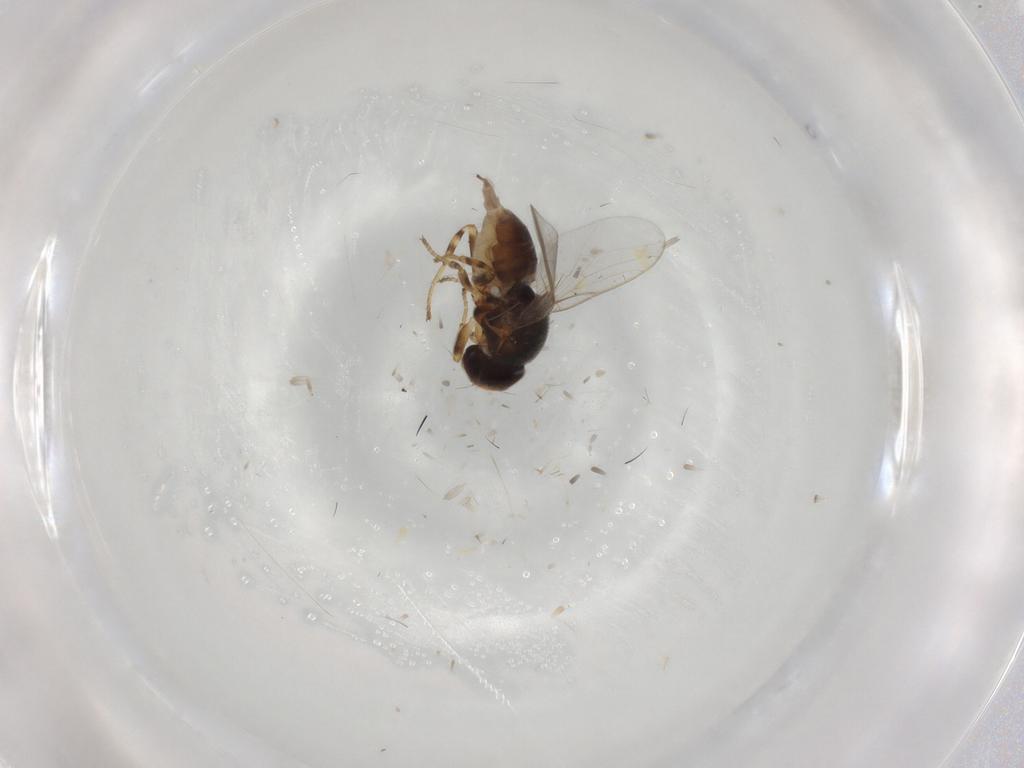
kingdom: Animalia
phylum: Arthropoda
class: Insecta
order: Diptera
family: Chloropidae
